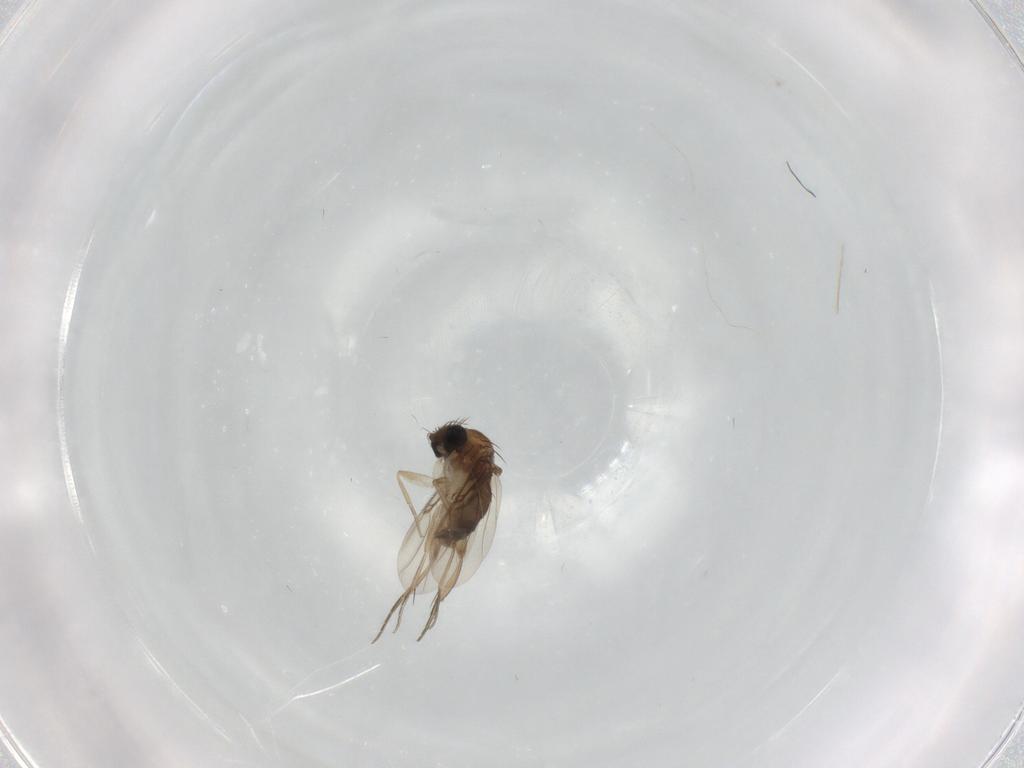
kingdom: Animalia
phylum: Arthropoda
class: Insecta
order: Diptera
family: Phoridae
